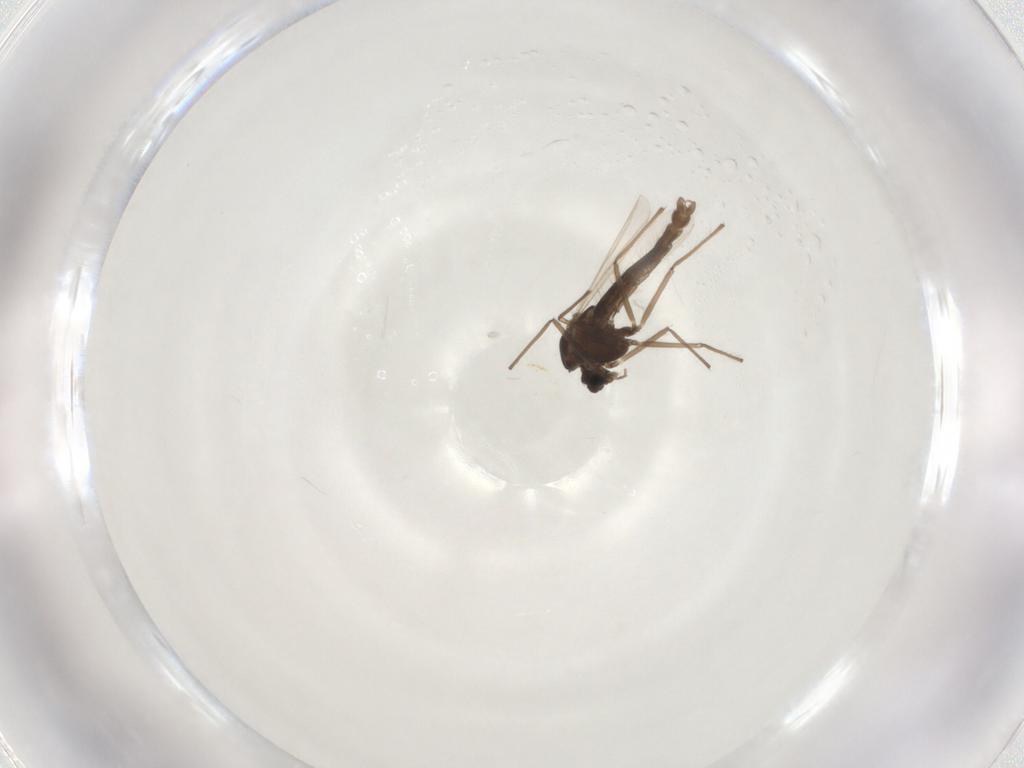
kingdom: Animalia
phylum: Arthropoda
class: Insecta
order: Diptera
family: Chironomidae
